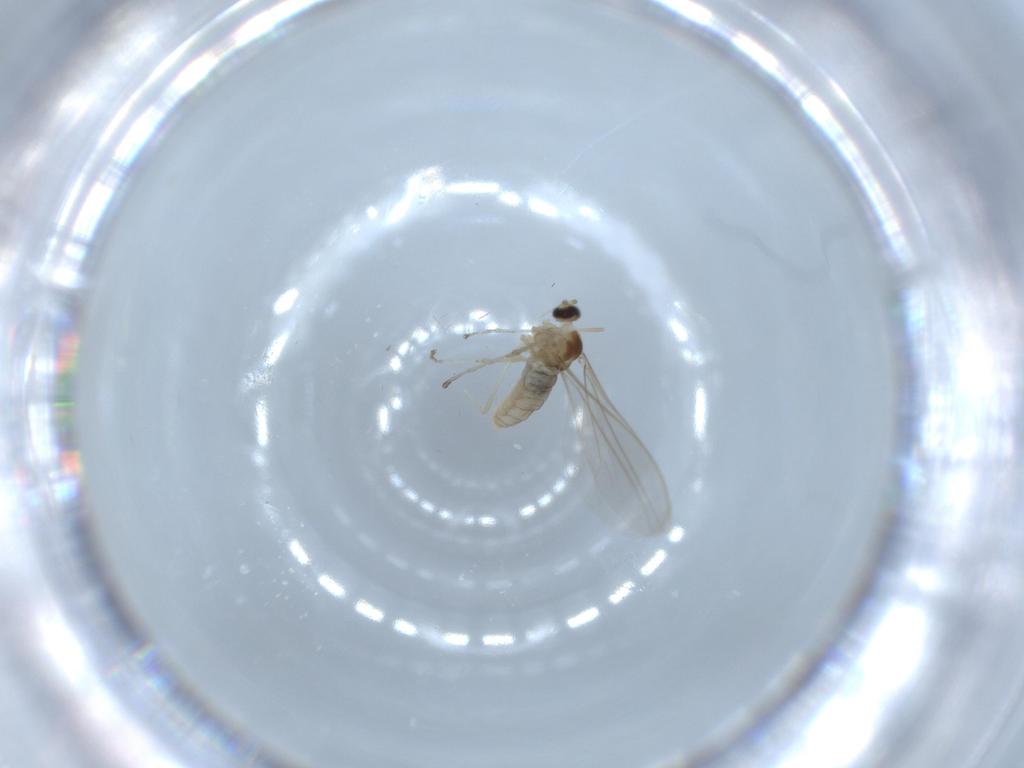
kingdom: Animalia
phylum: Arthropoda
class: Insecta
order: Diptera
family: Cecidomyiidae
